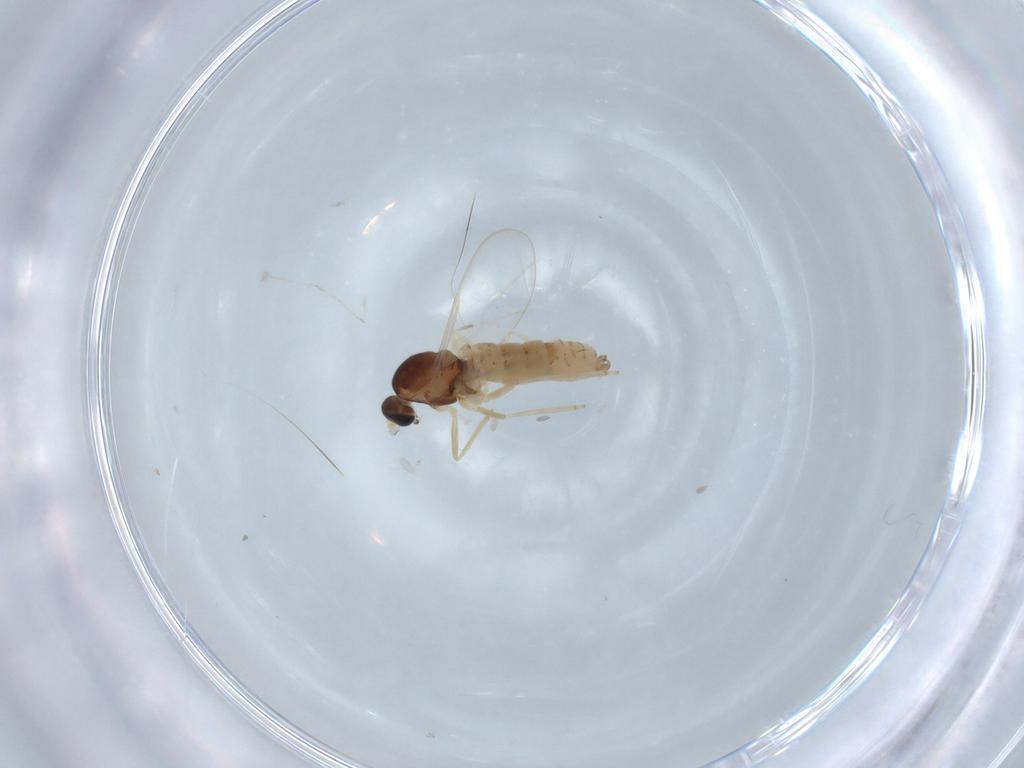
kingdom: Animalia
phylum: Arthropoda
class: Insecta
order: Diptera
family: Cecidomyiidae
